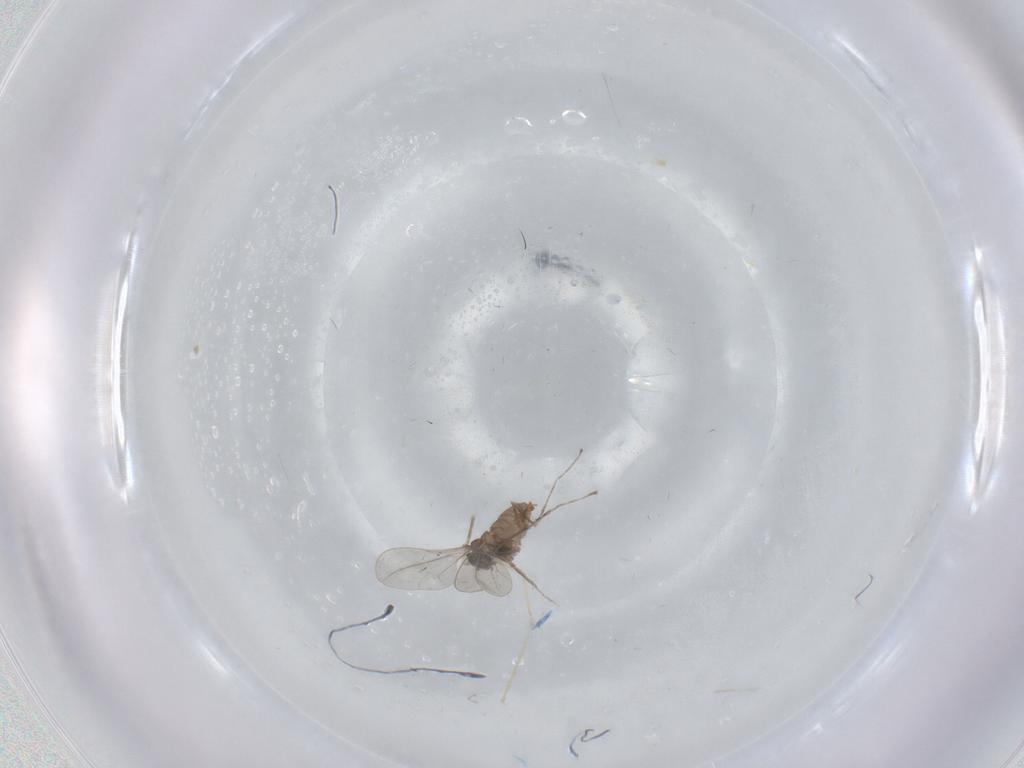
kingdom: Animalia
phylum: Arthropoda
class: Insecta
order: Diptera
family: Cecidomyiidae
